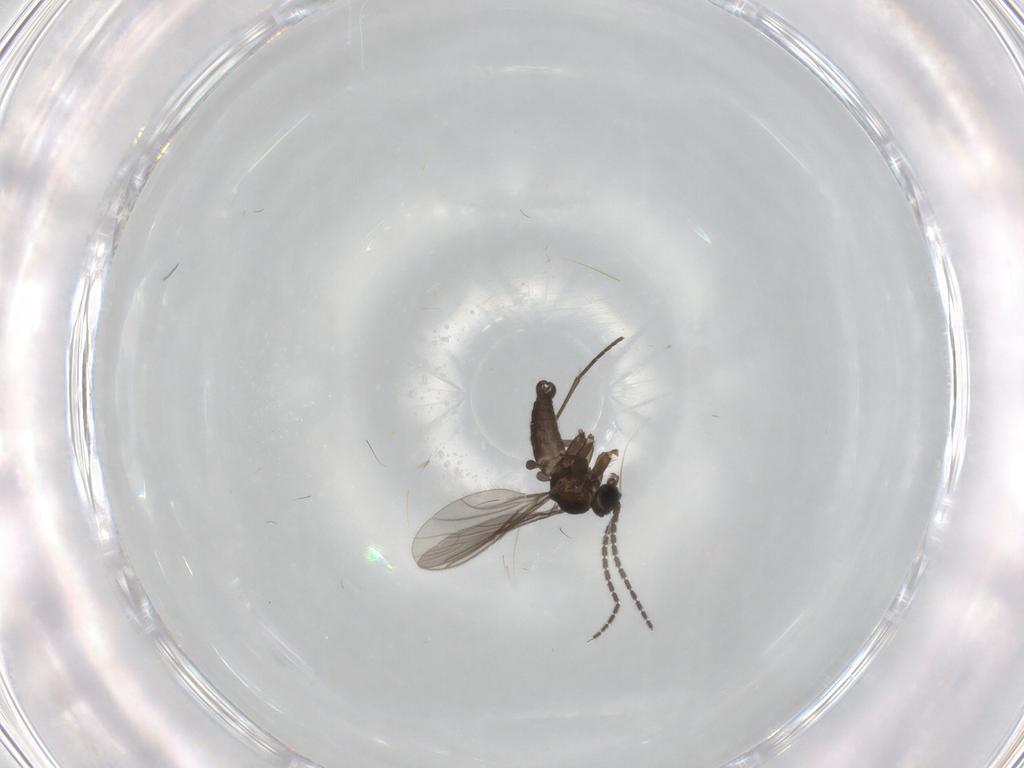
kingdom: Animalia
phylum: Arthropoda
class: Insecta
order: Diptera
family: Sciaridae
